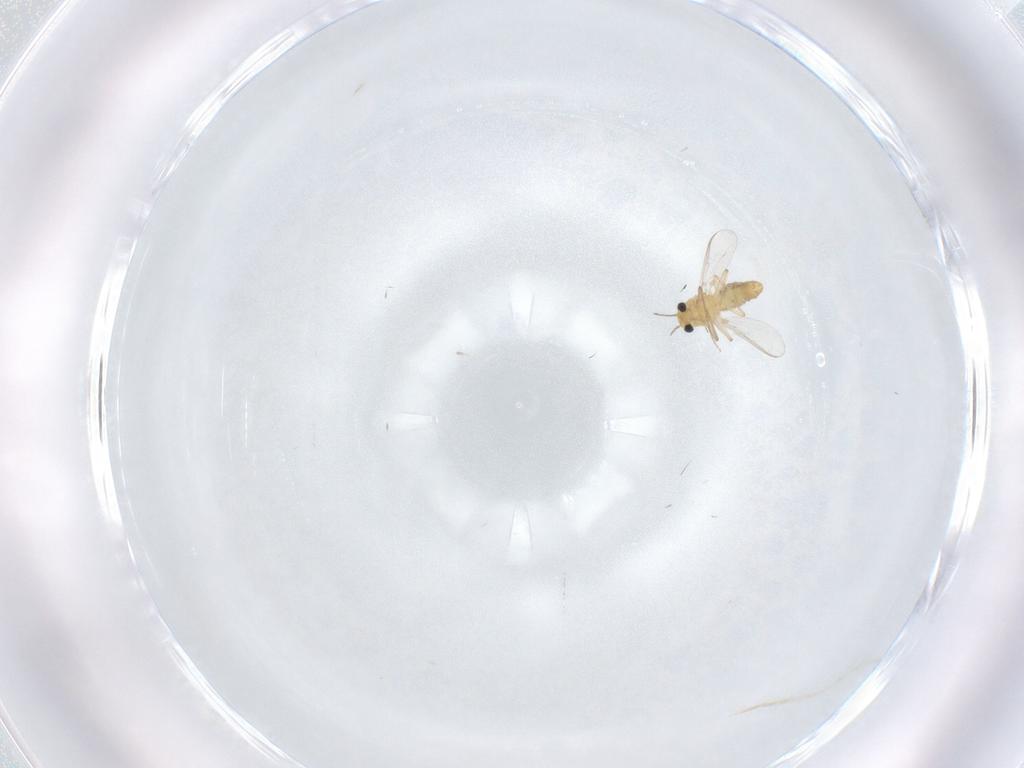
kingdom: Animalia
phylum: Arthropoda
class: Insecta
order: Diptera
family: Chironomidae
